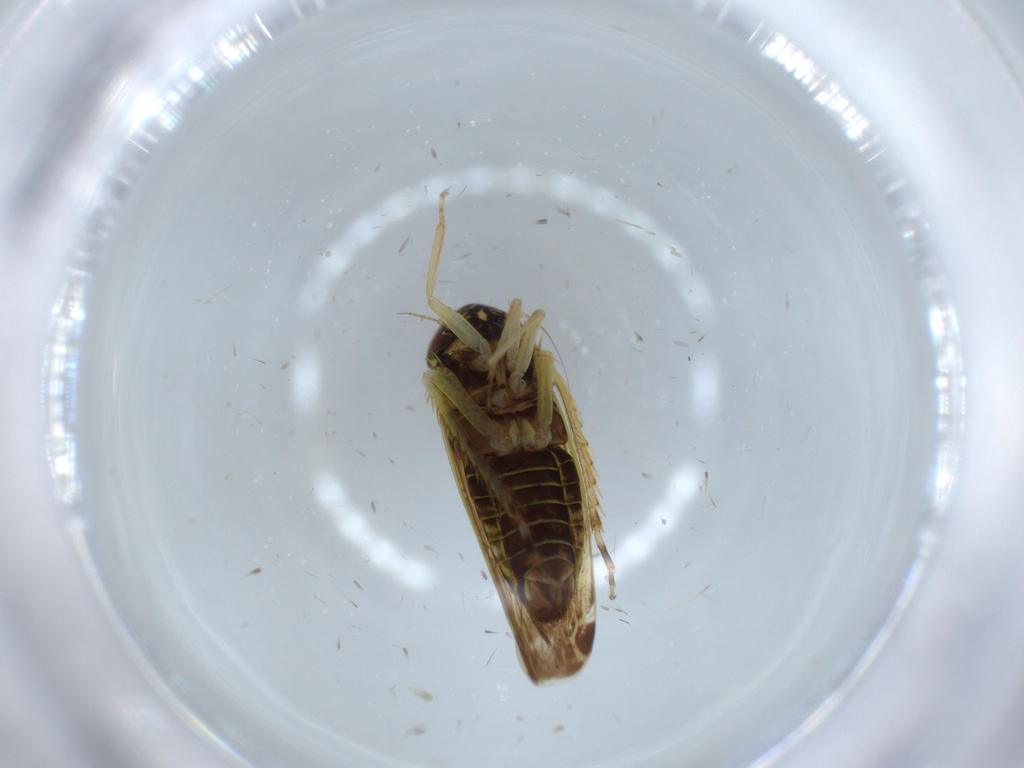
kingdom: Animalia
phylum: Arthropoda
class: Insecta
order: Hemiptera
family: Cicadellidae
